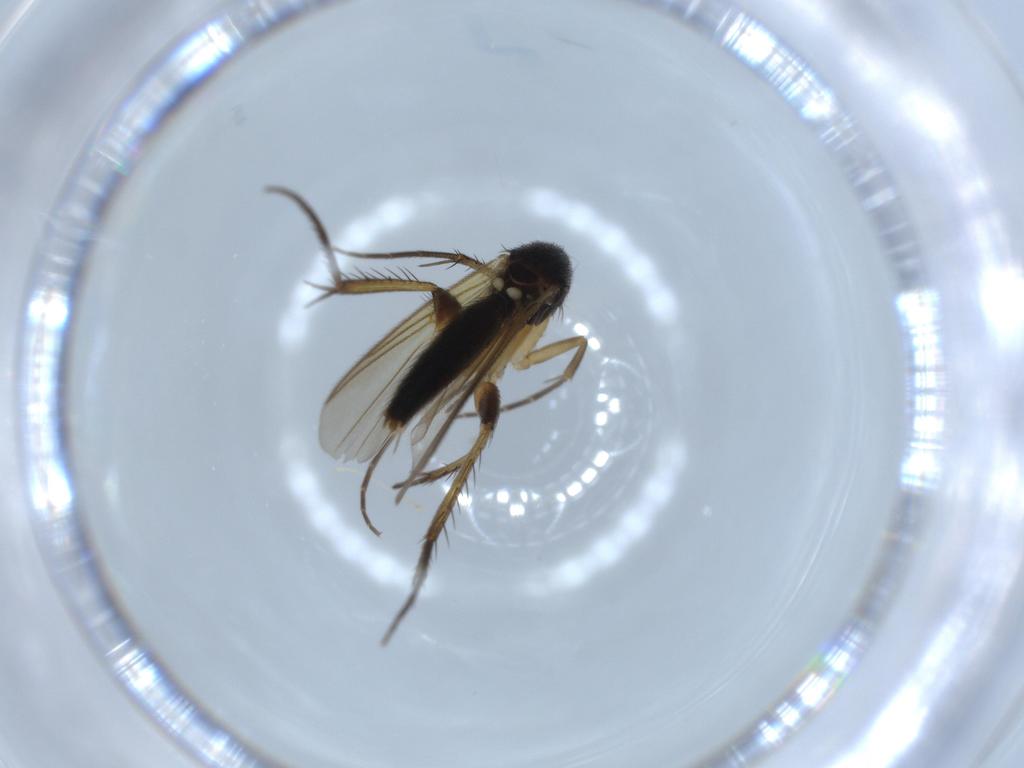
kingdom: Animalia
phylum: Arthropoda
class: Insecta
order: Diptera
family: Mycetophilidae
